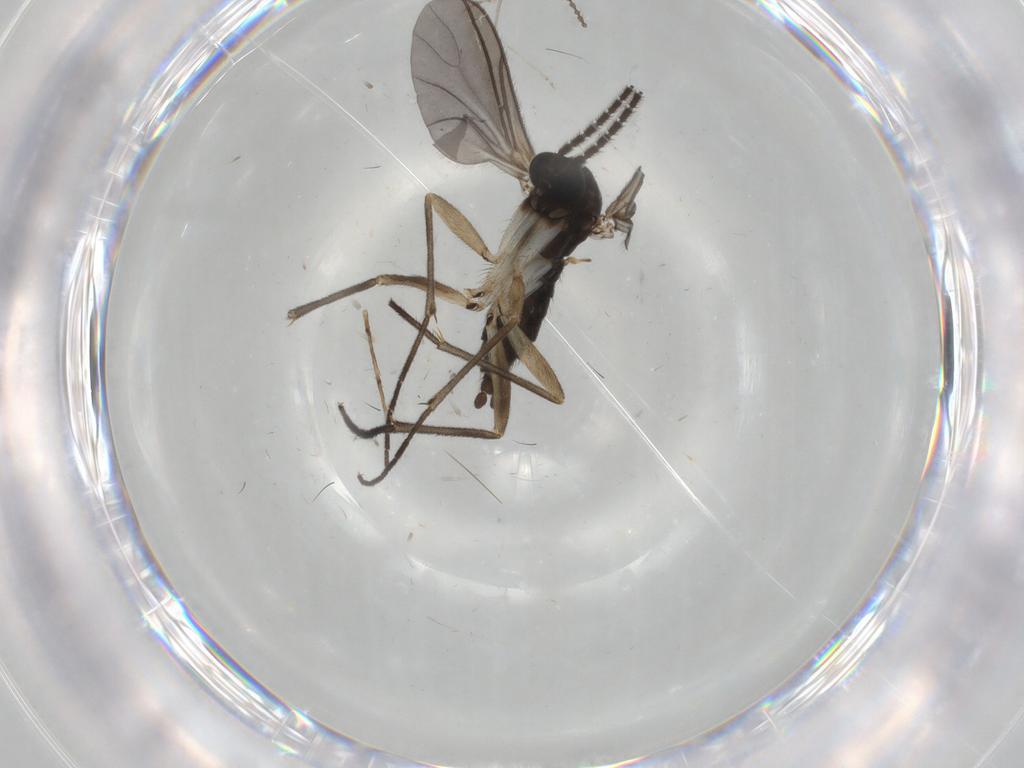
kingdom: Animalia
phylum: Arthropoda
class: Insecta
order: Diptera
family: Sciaridae
